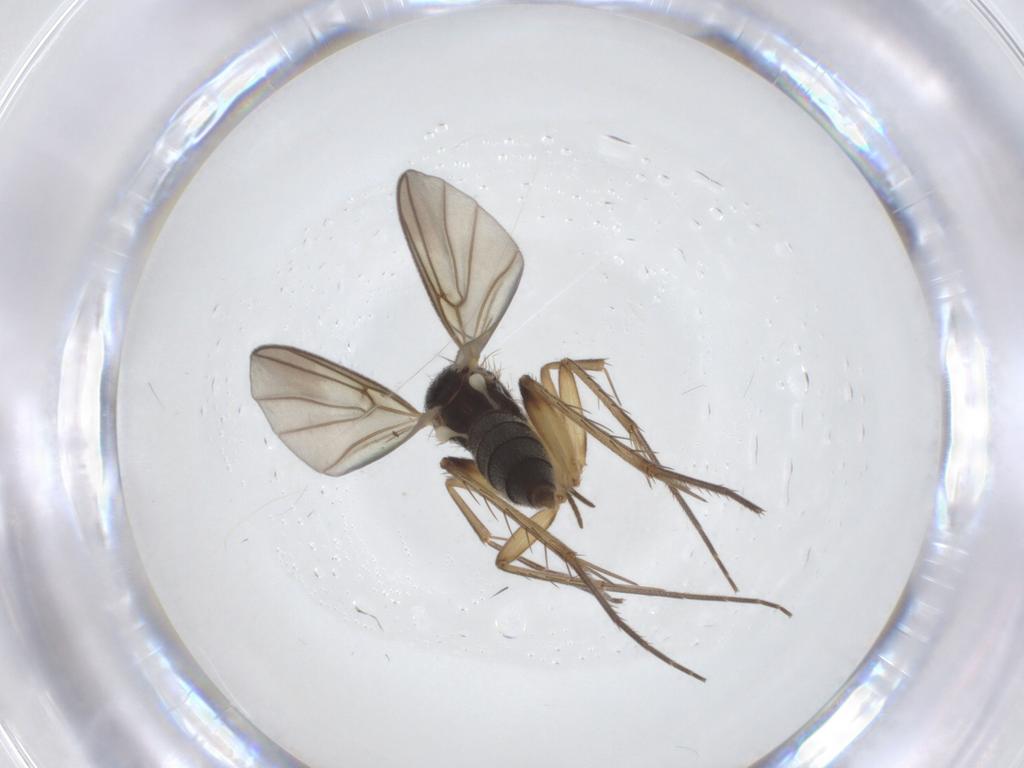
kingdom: Animalia
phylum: Arthropoda
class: Insecta
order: Diptera
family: Mycetophilidae
